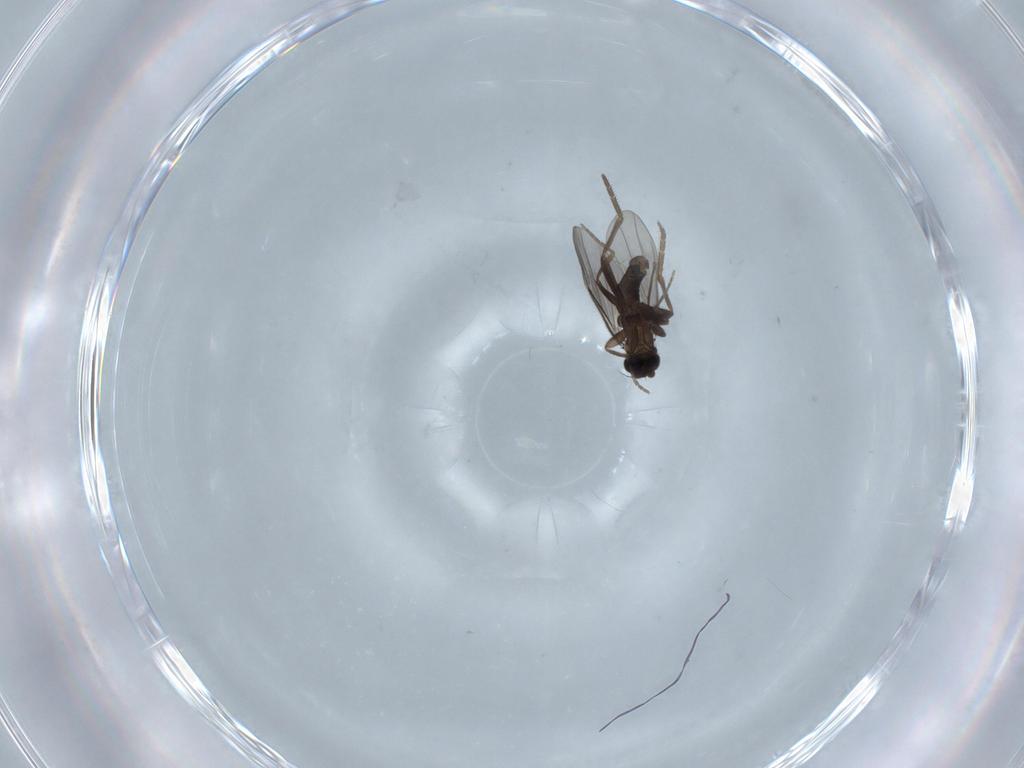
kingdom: Animalia
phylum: Arthropoda
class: Insecta
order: Diptera
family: Phoridae
